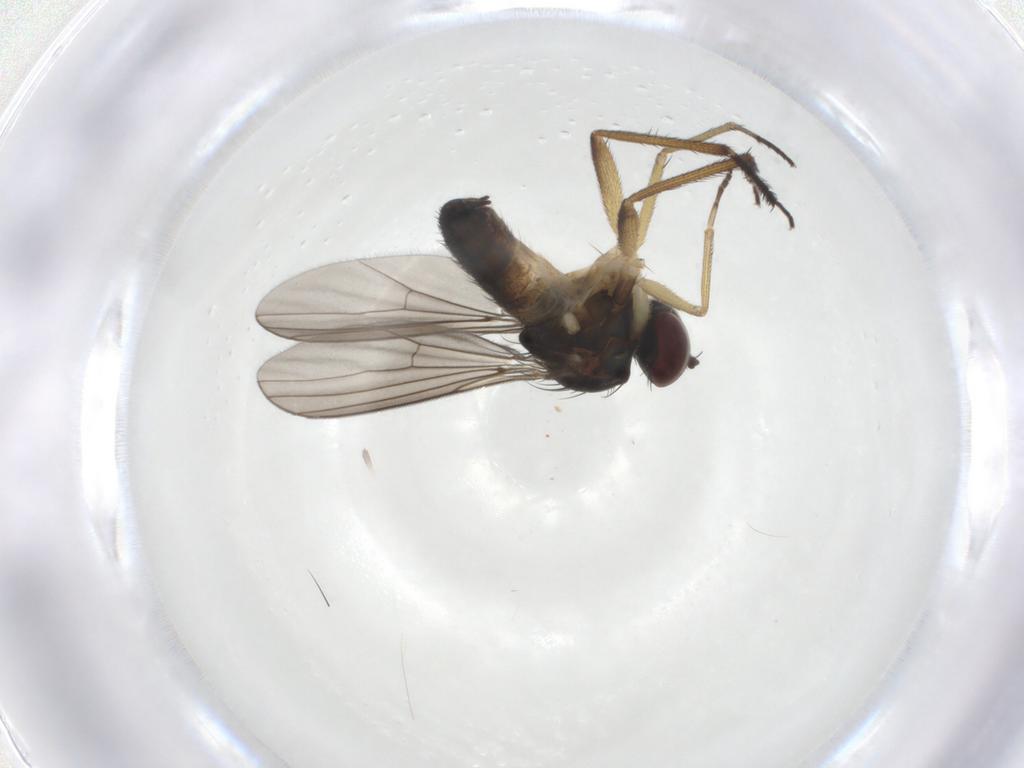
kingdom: Animalia
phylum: Arthropoda
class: Insecta
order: Diptera
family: Dolichopodidae
